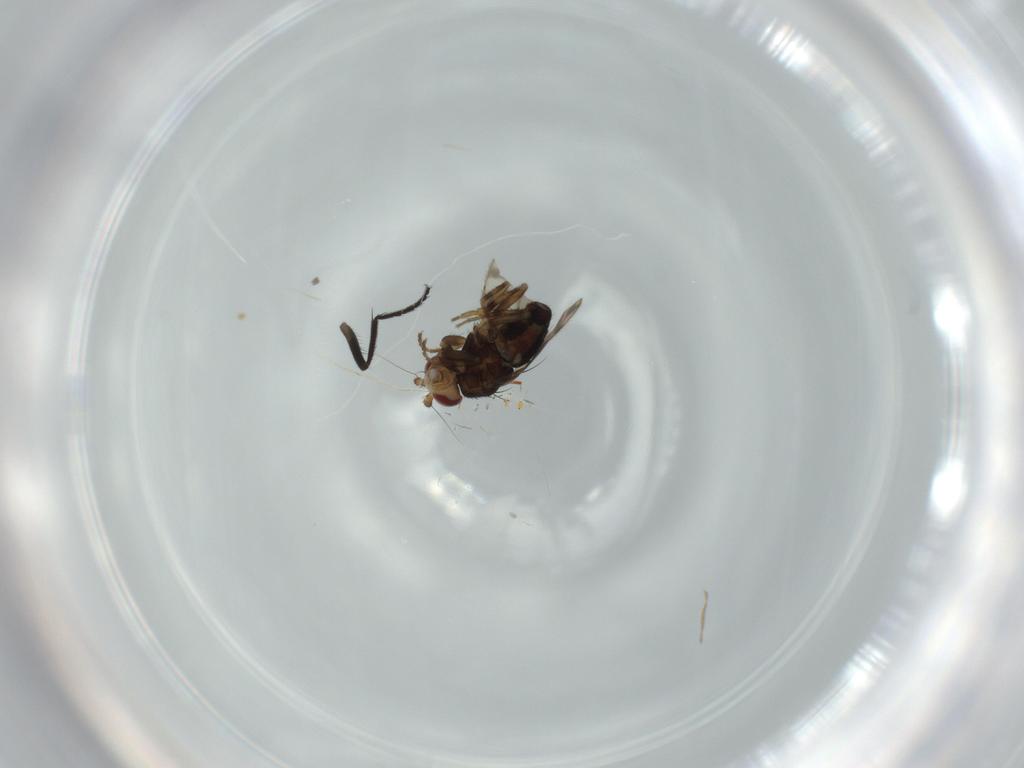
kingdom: Animalia
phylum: Arthropoda
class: Insecta
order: Diptera
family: Sphaeroceridae
